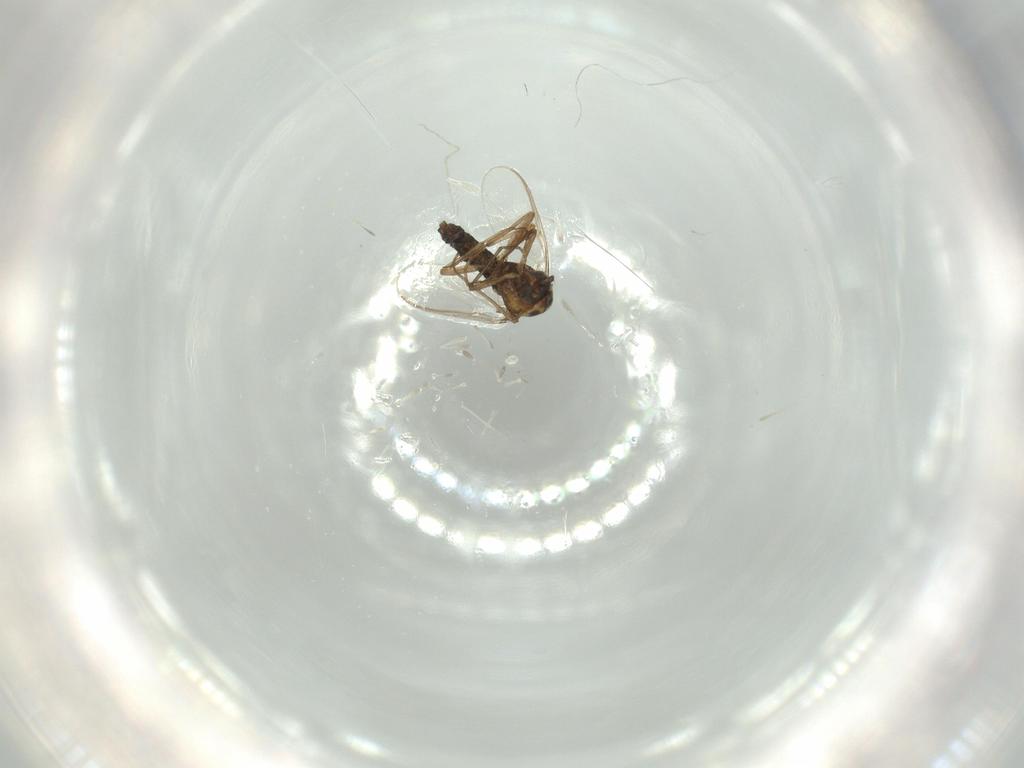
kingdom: Animalia
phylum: Arthropoda
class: Insecta
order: Diptera
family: Chironomidae
